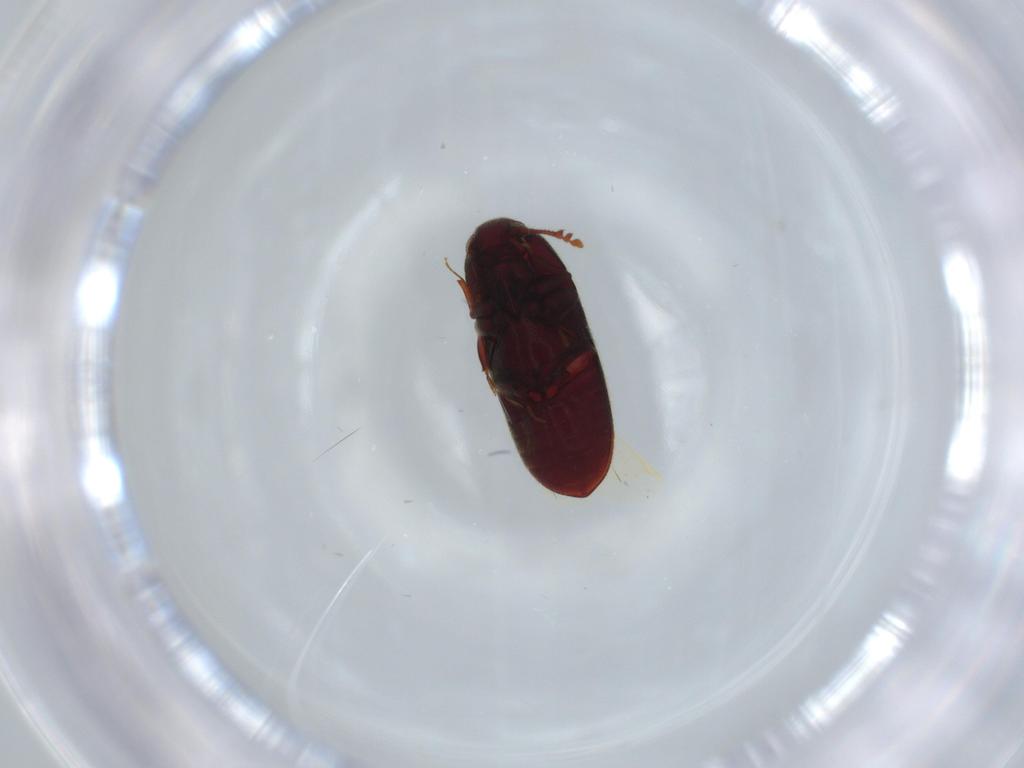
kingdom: Animalia
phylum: Arthropoda
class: Insecta
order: Coleoptera
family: Throscidae
